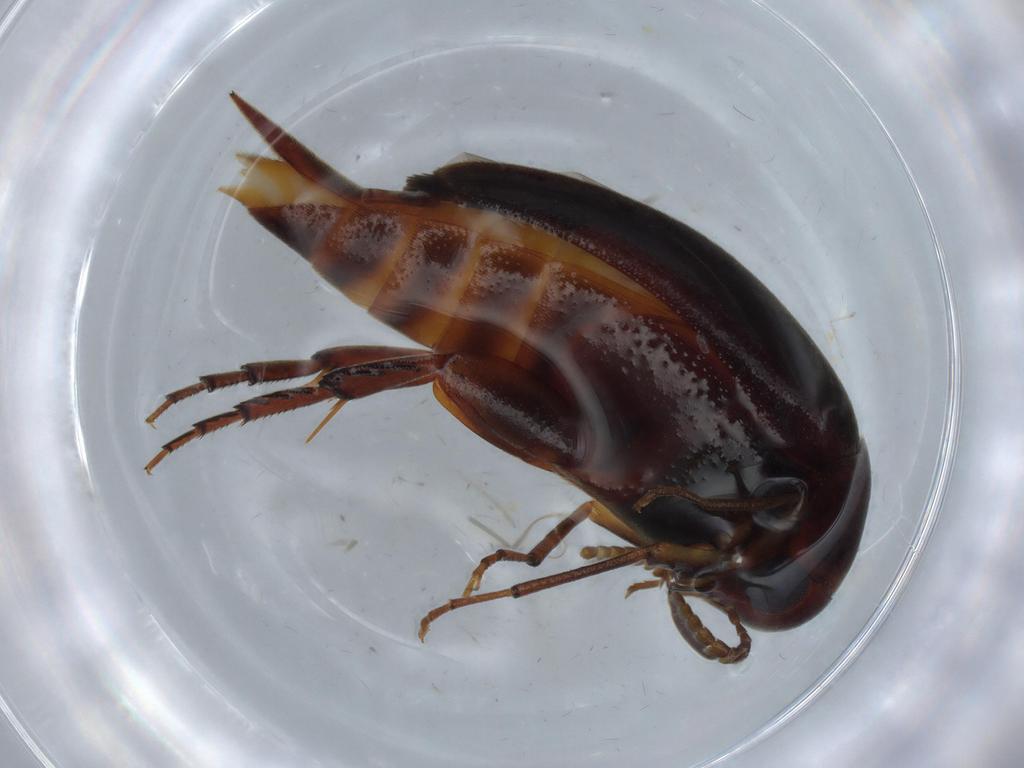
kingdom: Animalia
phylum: Arthropoda
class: Insecta
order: Coleoptera
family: Mordellidae
